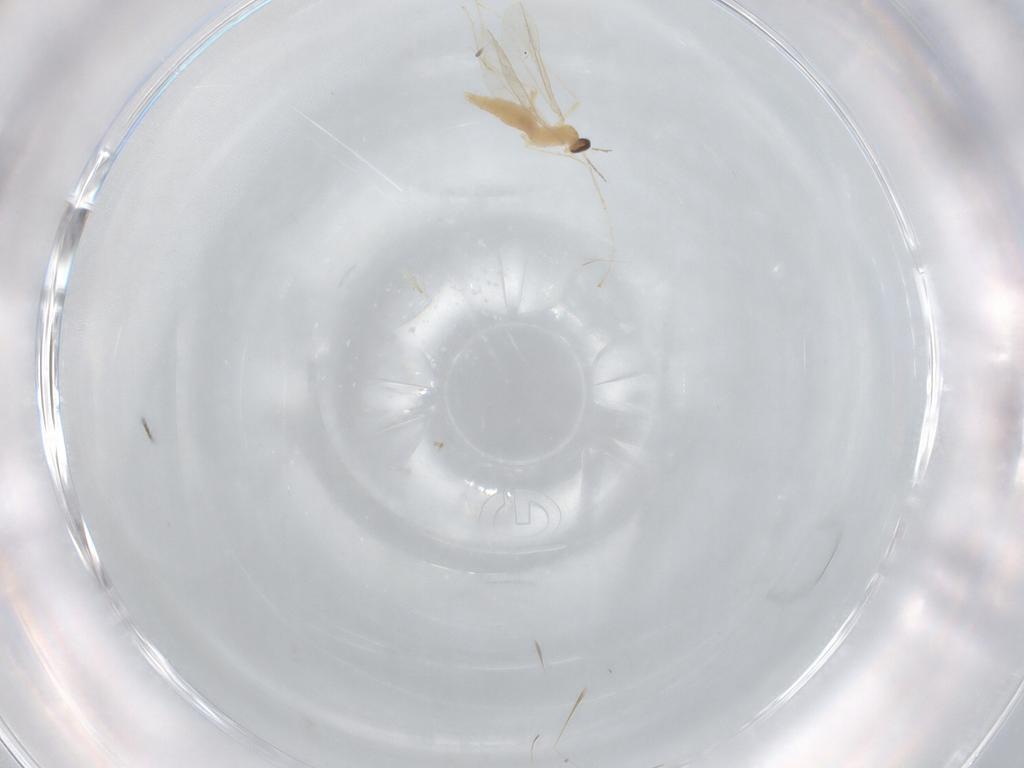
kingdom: Animalia
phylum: Arthropoda
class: Insecta
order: Diptera
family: Cecidomyiidae
